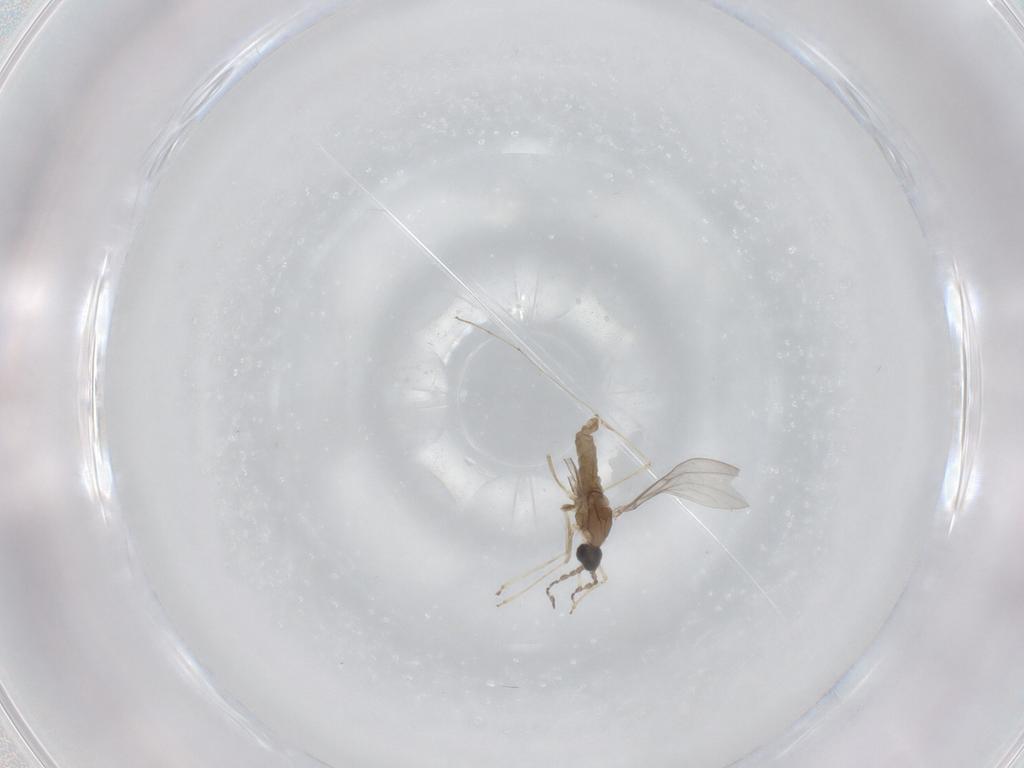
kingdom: Animalia
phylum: Arthropoda
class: Insecta
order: Diptera
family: Cecidomyiidae
